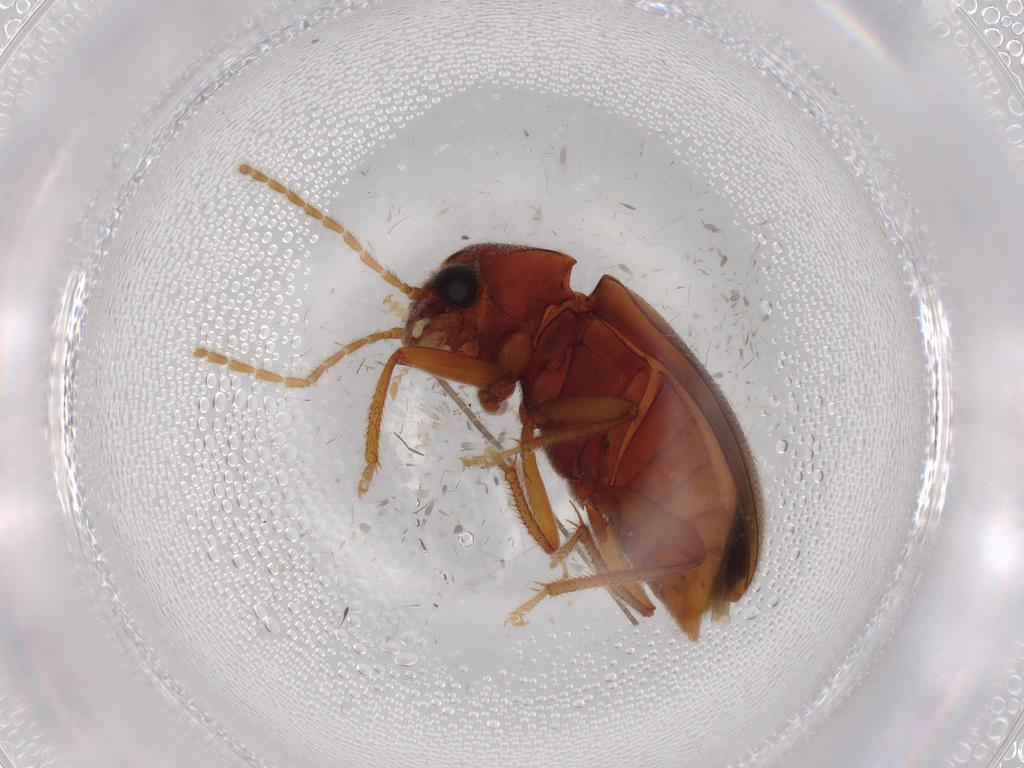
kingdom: Animalia
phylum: Arthropoda
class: Insecta
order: Coleoptera
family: Ptilodactylidae
